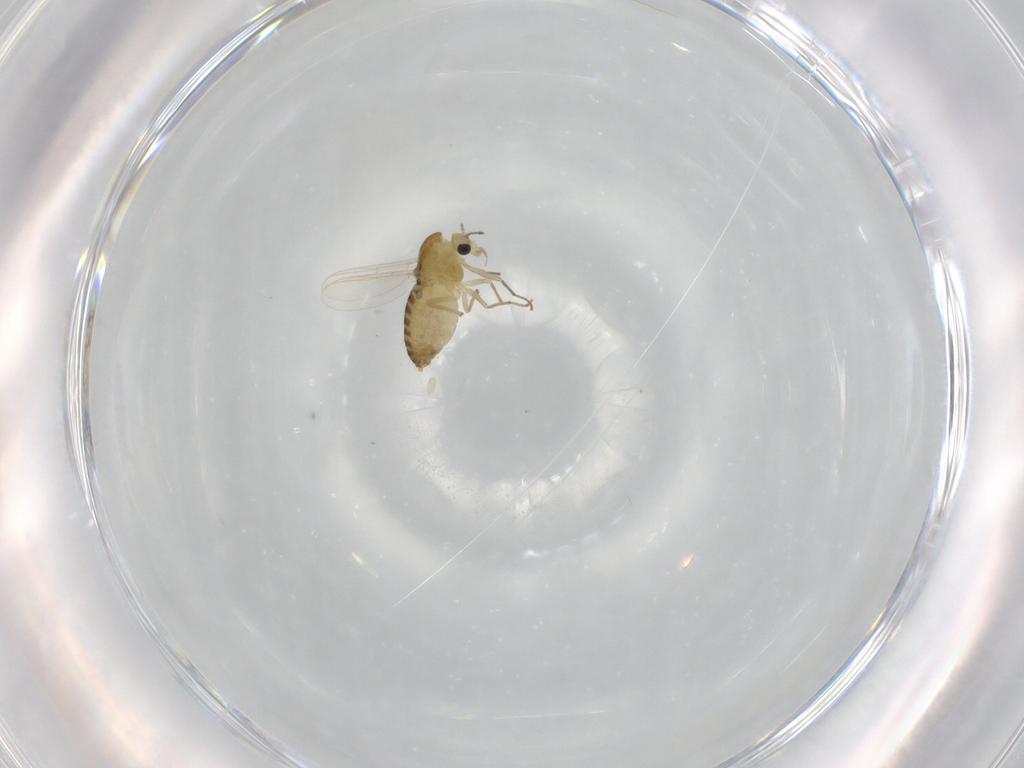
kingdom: Animalia
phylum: Arthropoda
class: Insecta
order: Diptera
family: Chironomidae
